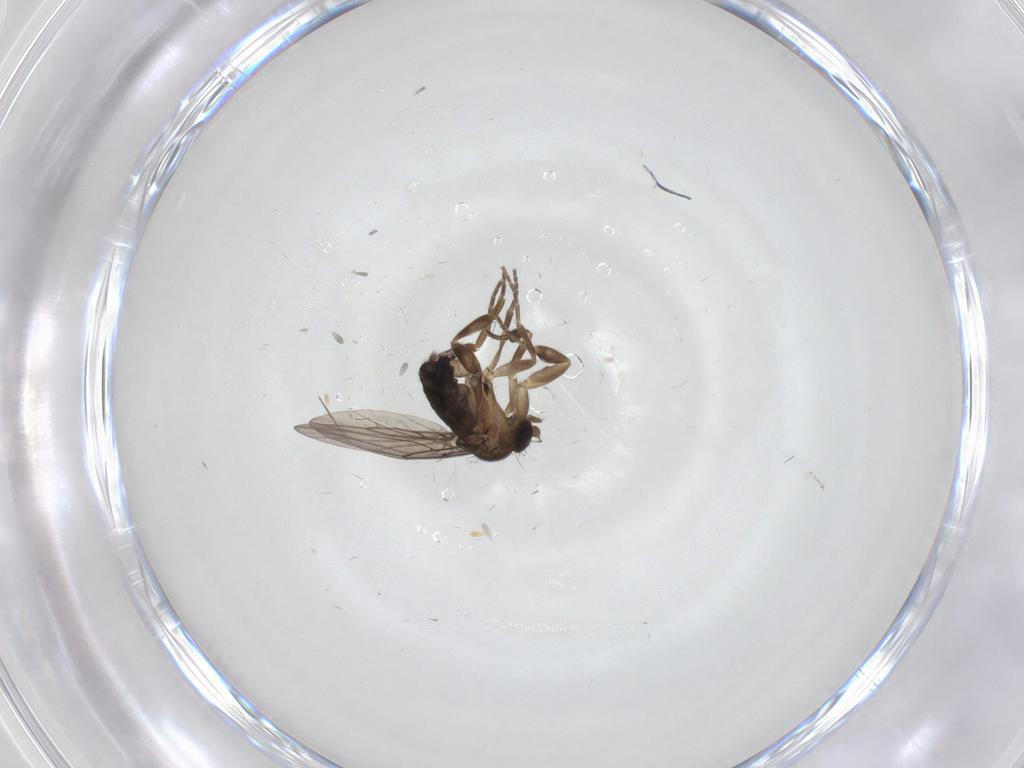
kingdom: Animalia
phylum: Arthropoda
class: Insecta
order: Diptera
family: Phoridae
